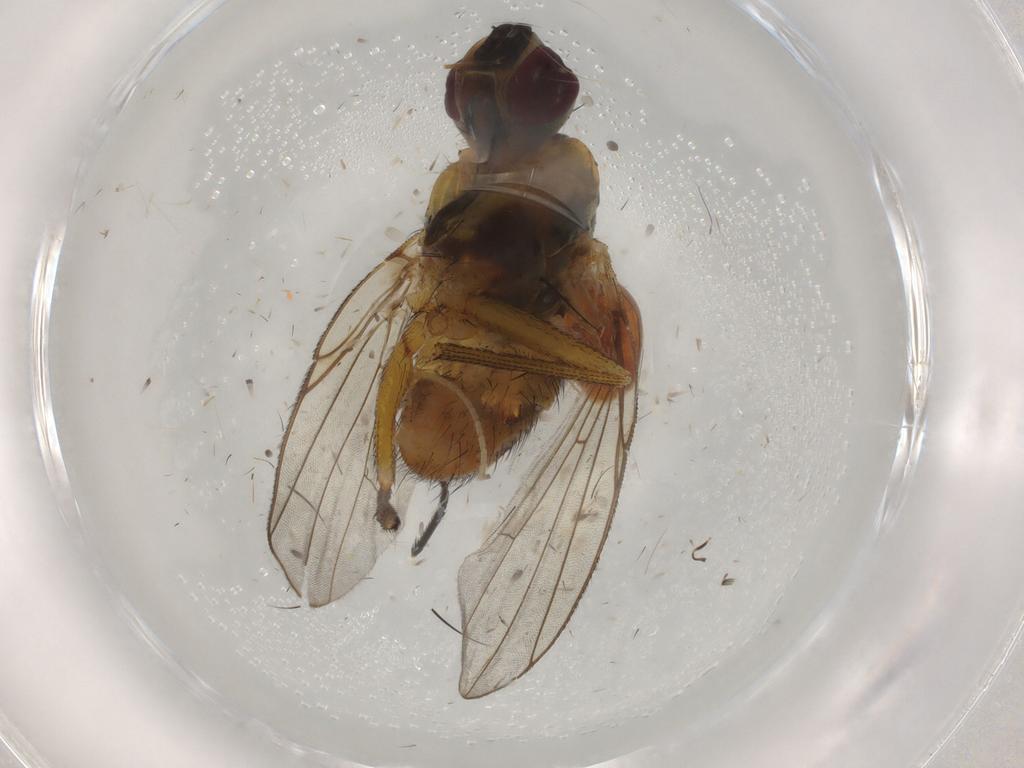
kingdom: Animalia
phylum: Arthropoda
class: Insecta
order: Diptera
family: Muscidae
